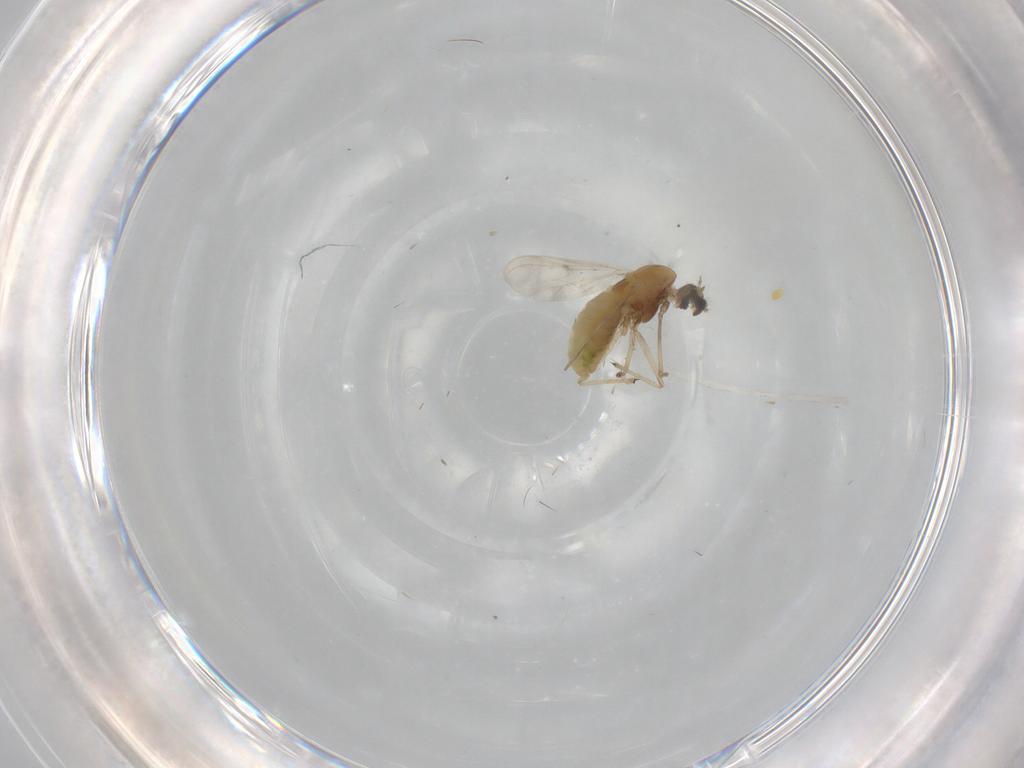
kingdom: Animalia
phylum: Arthropoda
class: Insecta
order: Diptera
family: Chironomidae
